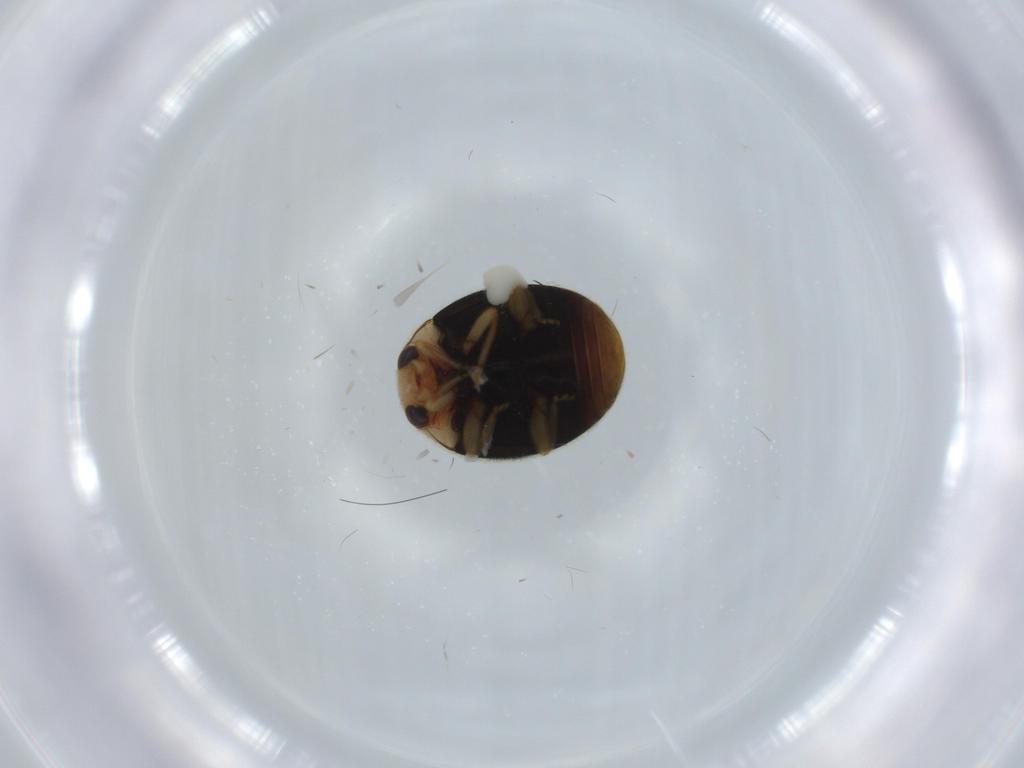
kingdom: Animalia
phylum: Arthropoda
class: Insecta
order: Coleoptera
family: Coccinellidae
